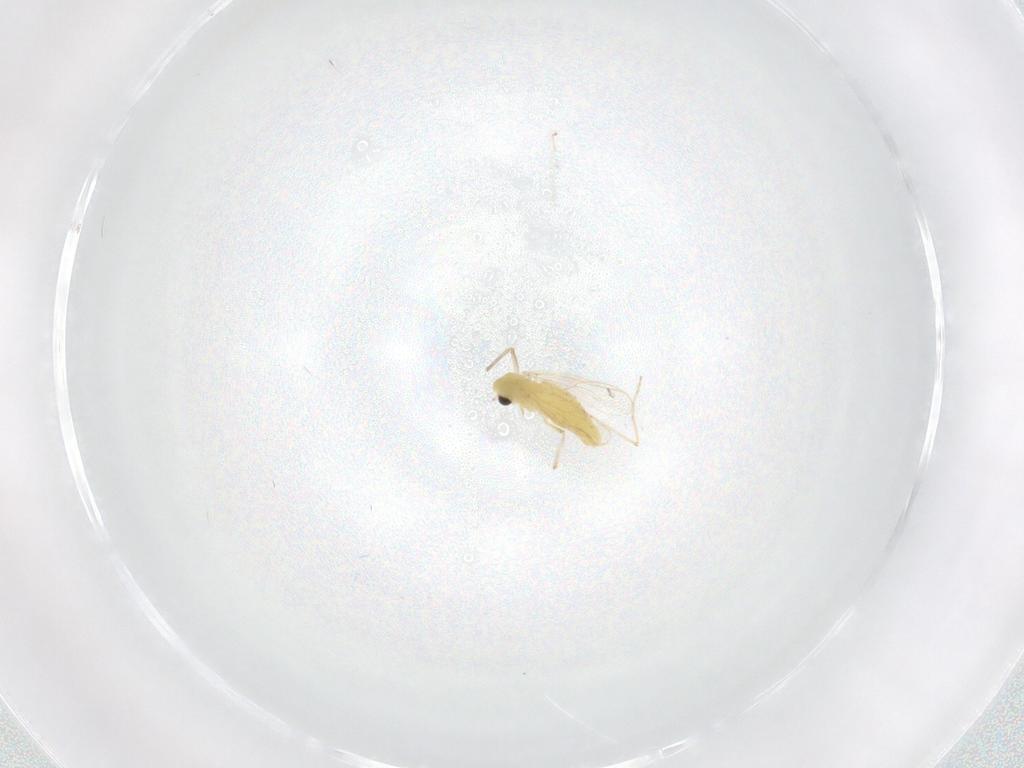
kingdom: Animalia
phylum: Arthropoda
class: Insecta
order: Diptera
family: Chironomidae
